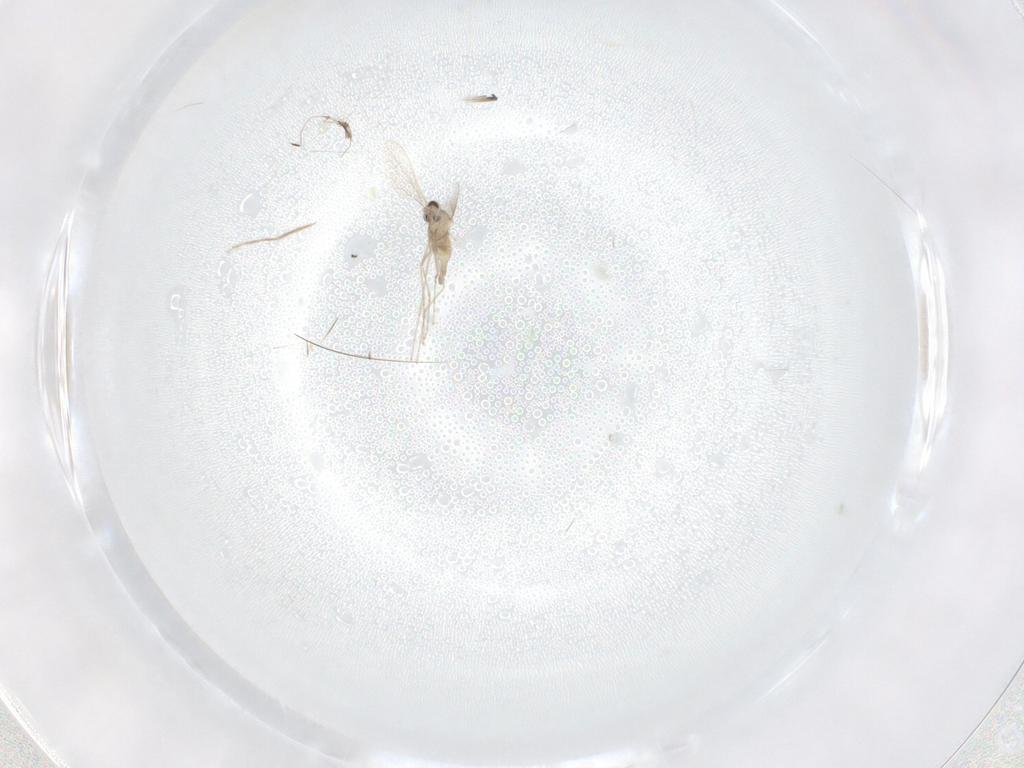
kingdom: Animalia
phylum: Arthropoda
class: Insecta
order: Diptera
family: Cecidomyiidae
